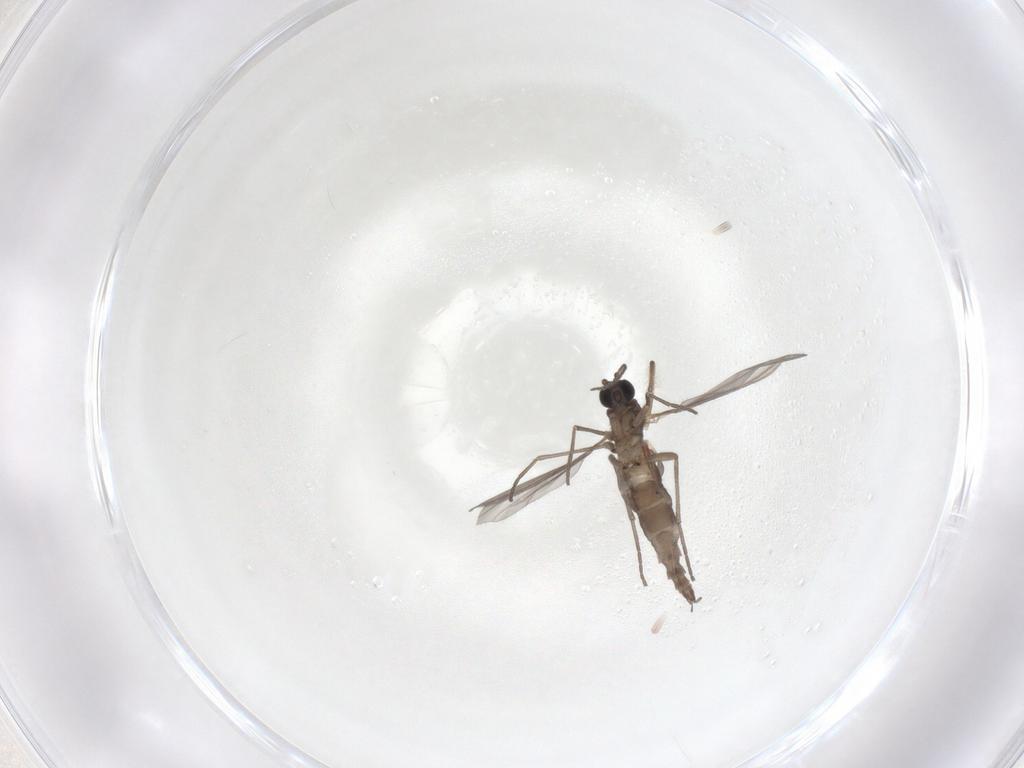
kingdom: Animalia
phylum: Arthropoda
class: Insecta
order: Diptera
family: Sciaridae
